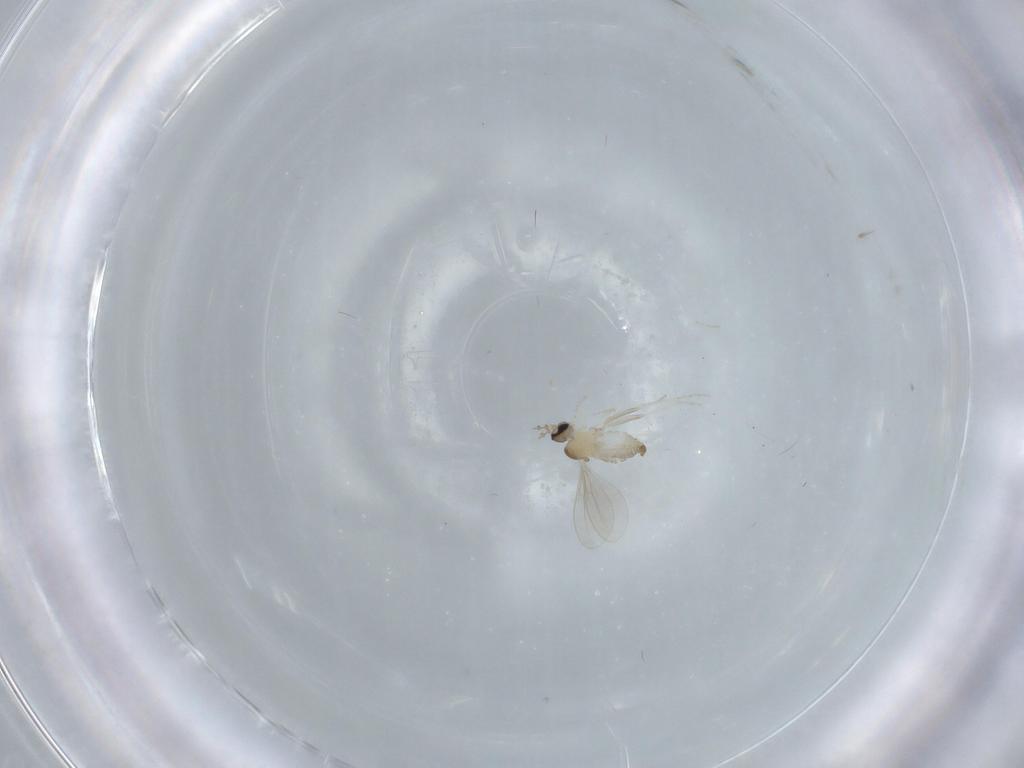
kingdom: Animalia
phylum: Arthropoda
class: Insecta
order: Diptera
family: Cecidomyiidae
